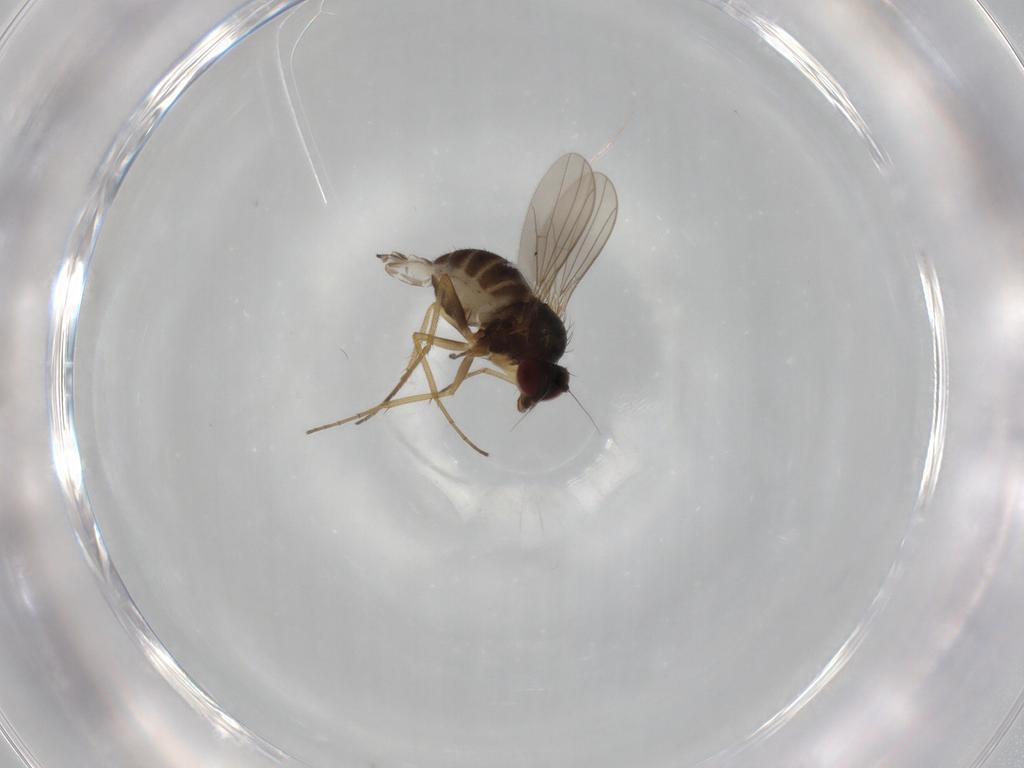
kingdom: Animalia
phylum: Arthropoda
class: Insecta
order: Diptera
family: Dolichopodidae
